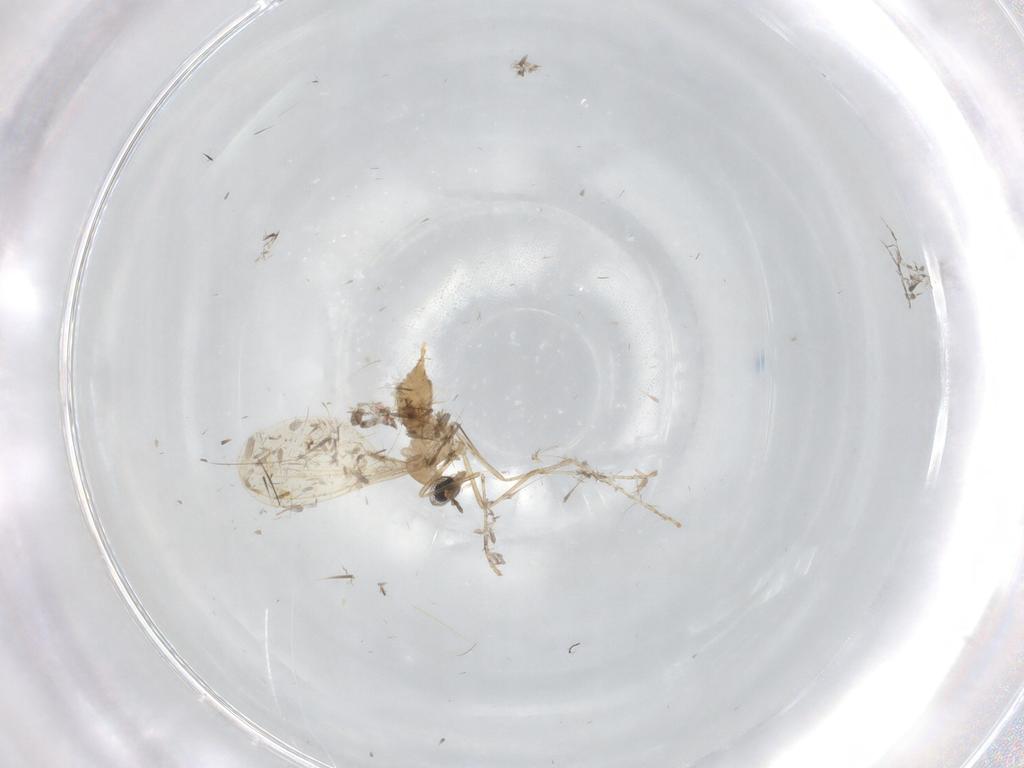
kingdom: Animalia
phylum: Arthropoda
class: Insecta
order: Diptera
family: Cecidomyiidae
